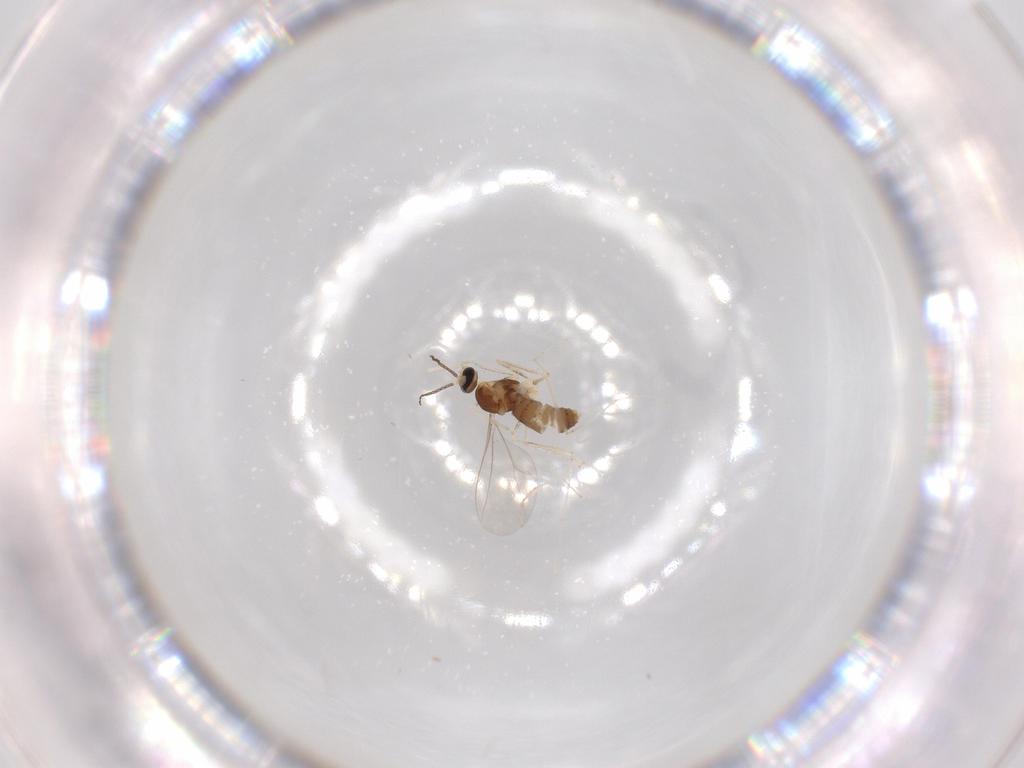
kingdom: Animalia
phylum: Arthropoda
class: Insecta
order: Diptera
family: Cecidomyiidae
